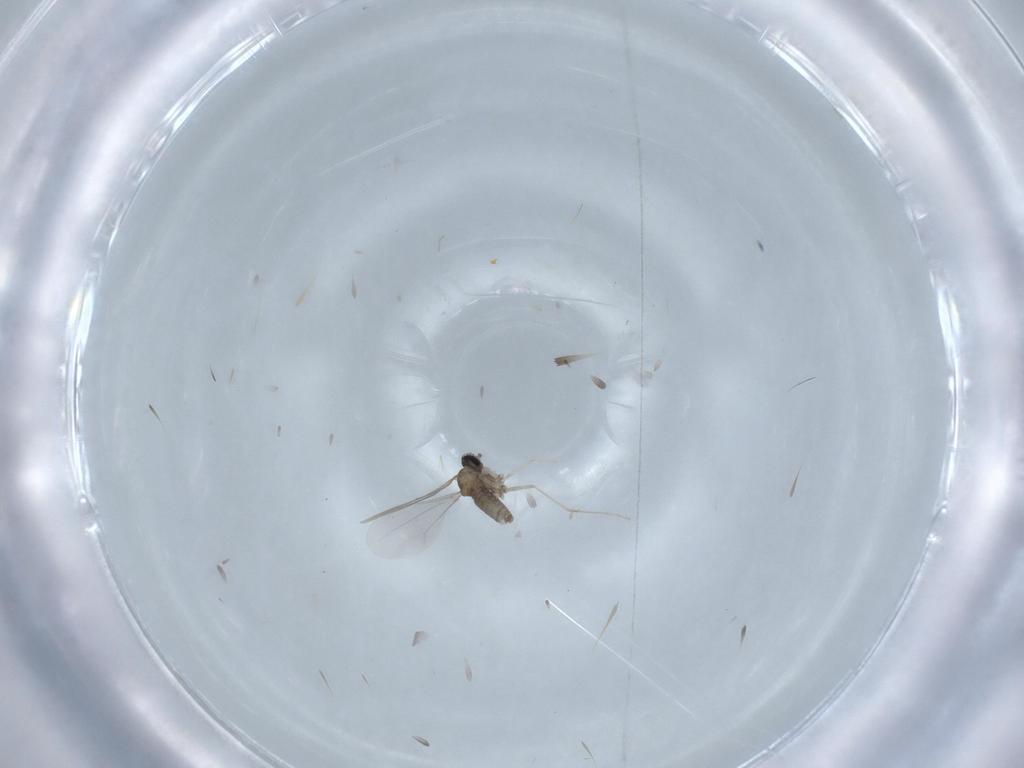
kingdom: Animalia
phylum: Arthropoda
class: Insecta
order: Diptera
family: Cecidomyiidae
